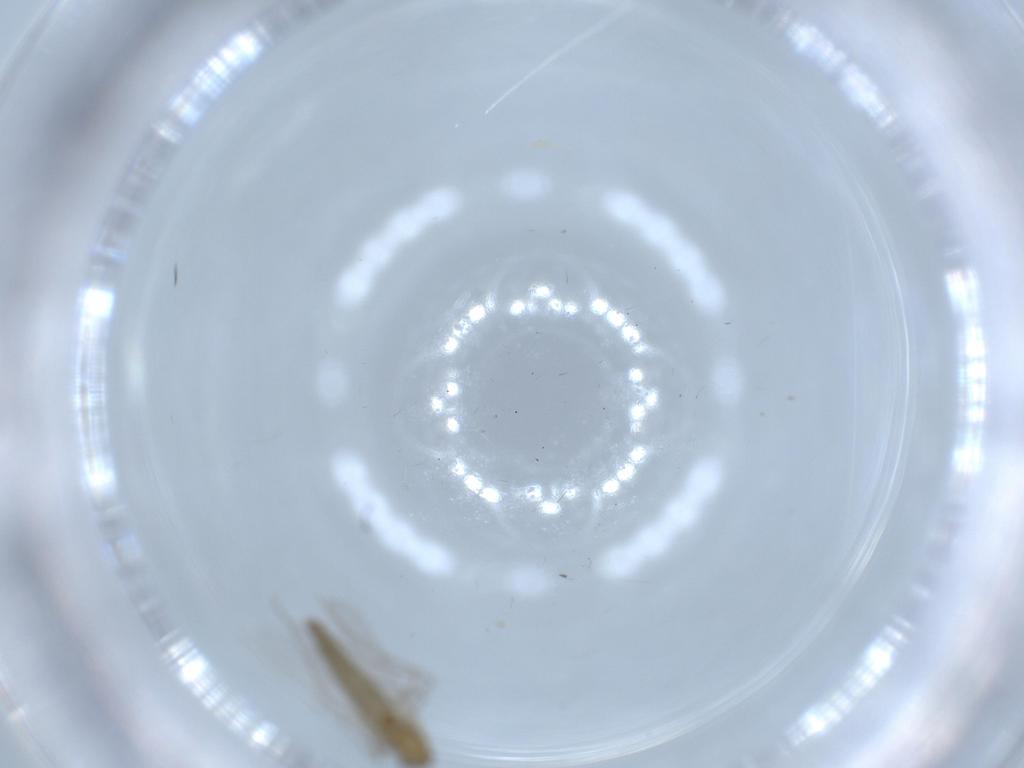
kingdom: Animalia
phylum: Arthropoda
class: Insecta
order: Diptera
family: Chironomidae
